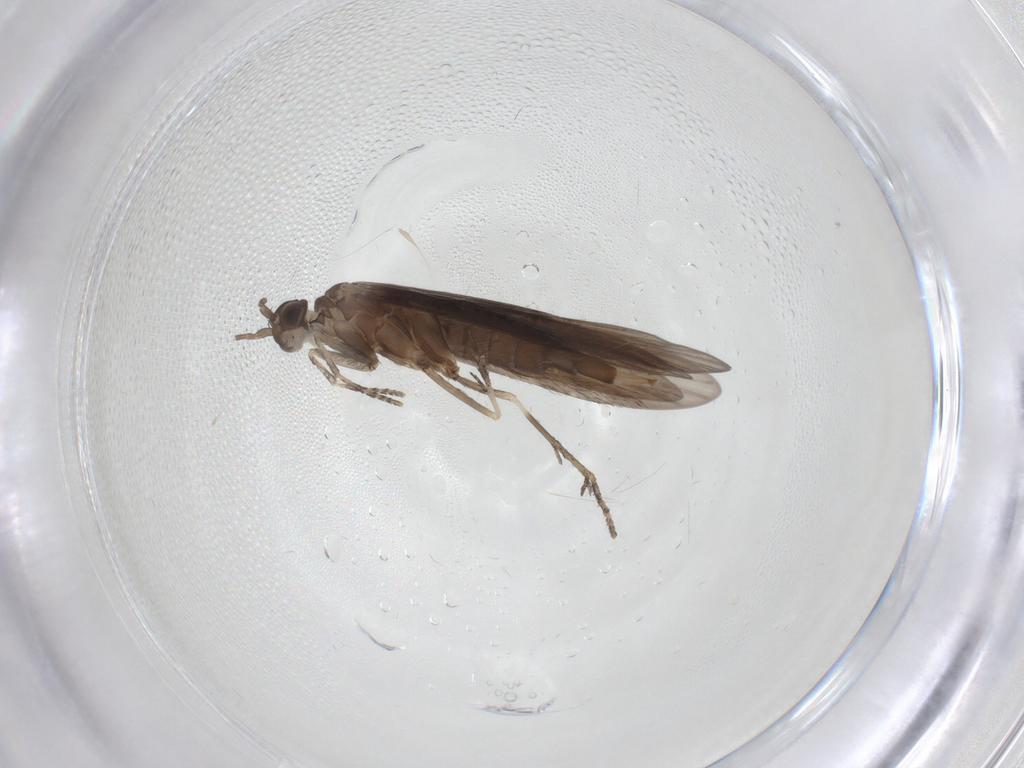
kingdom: Animalia
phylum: Arthropoda
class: Insecta
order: Trichoptera
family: Xiphocentronidae
